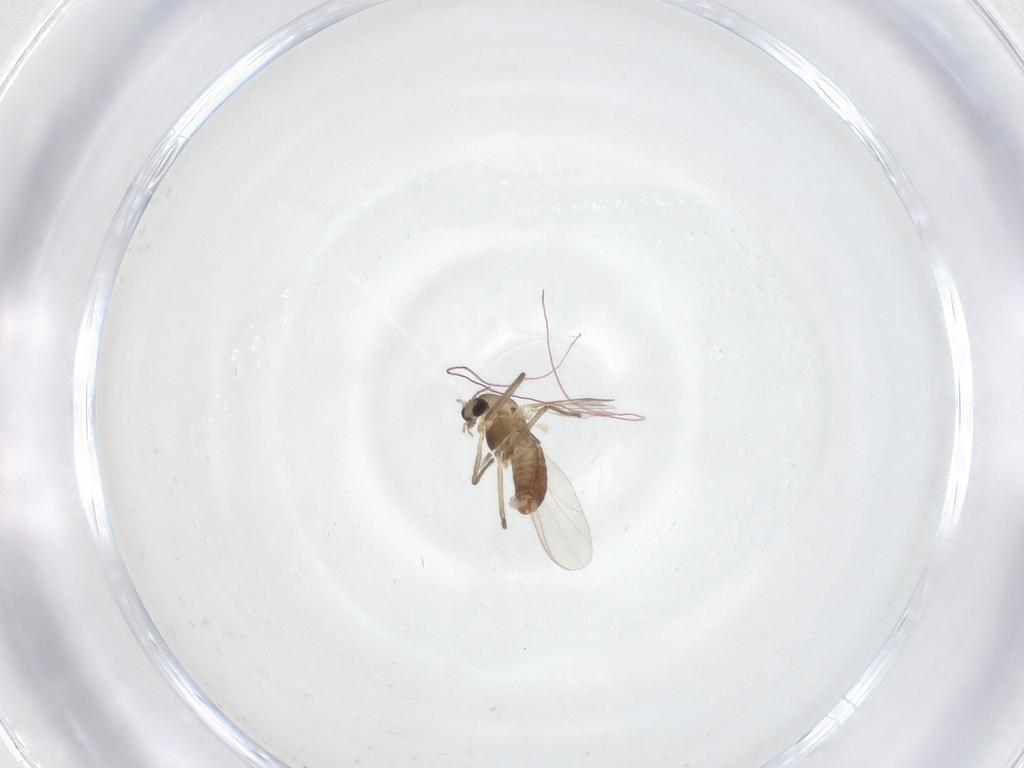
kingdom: Animalia
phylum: Arthropoda
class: Insecta
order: Diptera
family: Chironomidae
